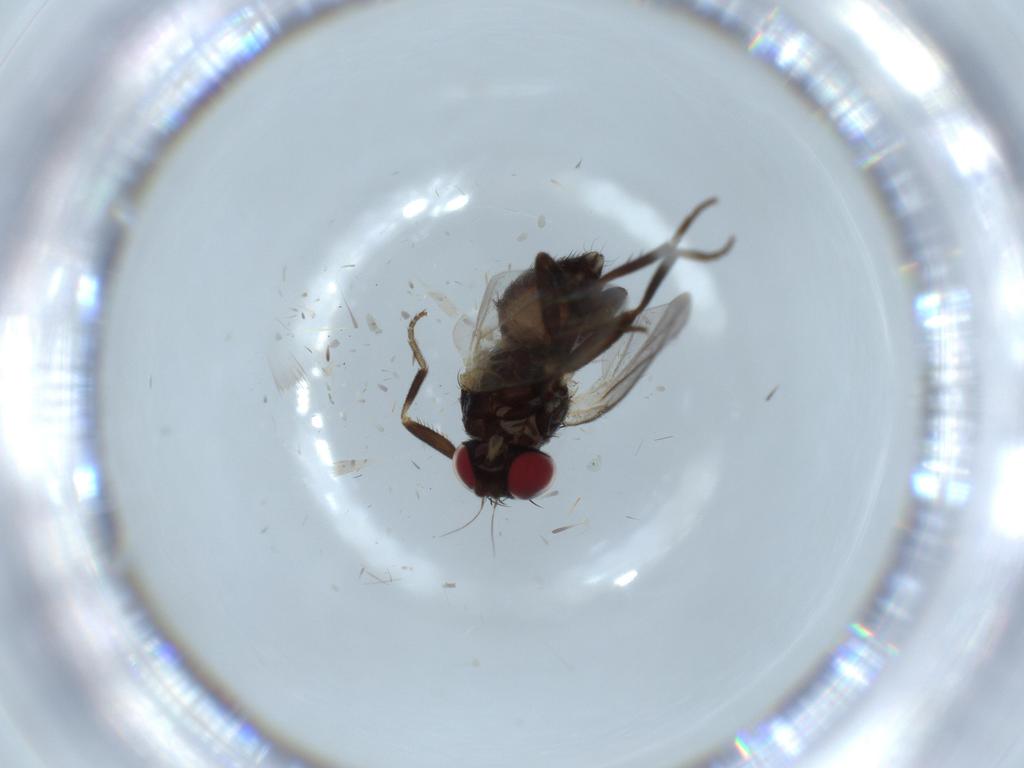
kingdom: Animalia
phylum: Arthropoda
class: Insecta
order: Diptera
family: Agromyzidae
